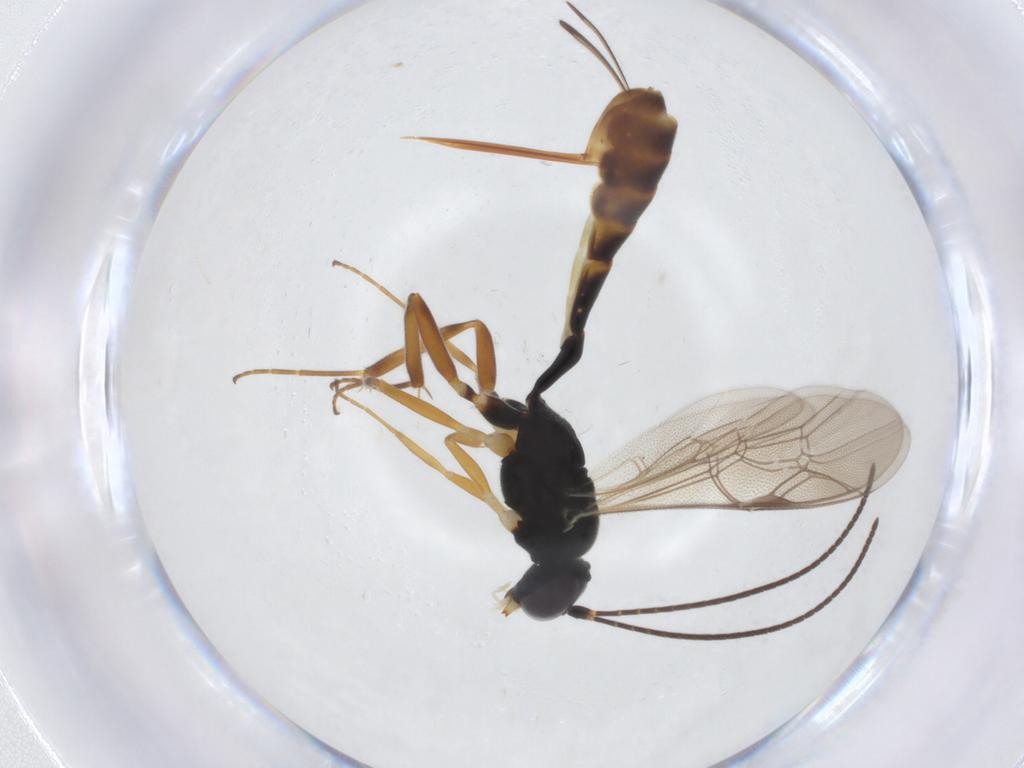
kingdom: Animalia
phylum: Arthropoda
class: Insecta
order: Hymenoptera
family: Ichneumonidae
